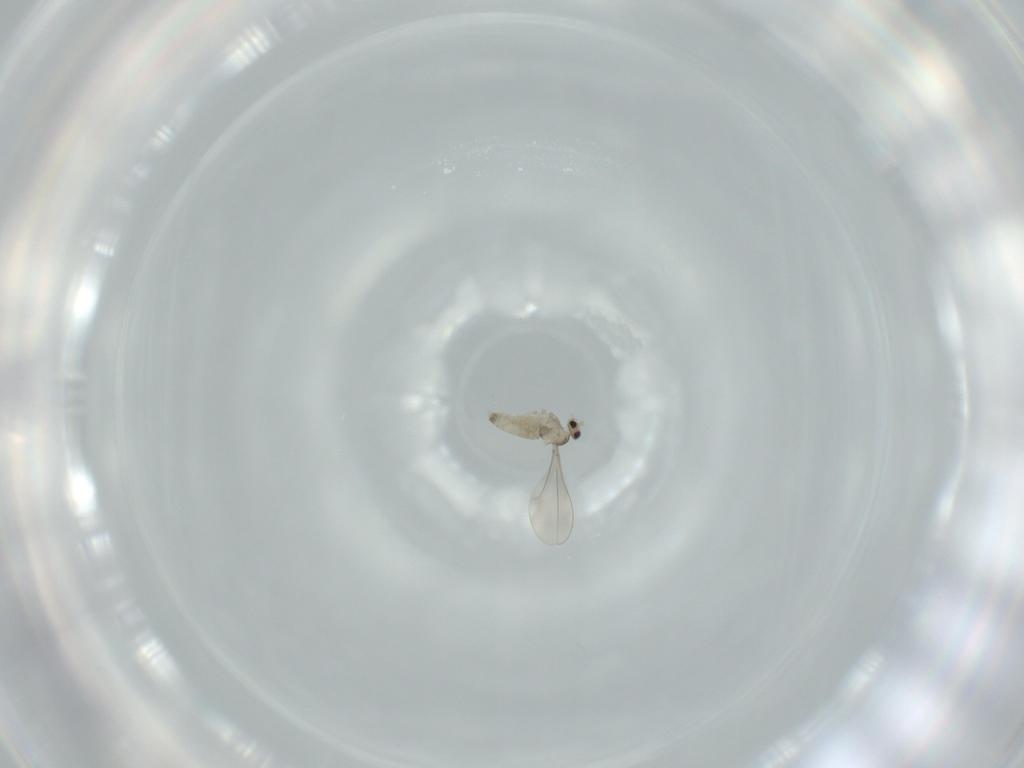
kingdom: Animalia
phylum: Arthropoda
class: Insecta
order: Diptera
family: Cecidomyiidae
